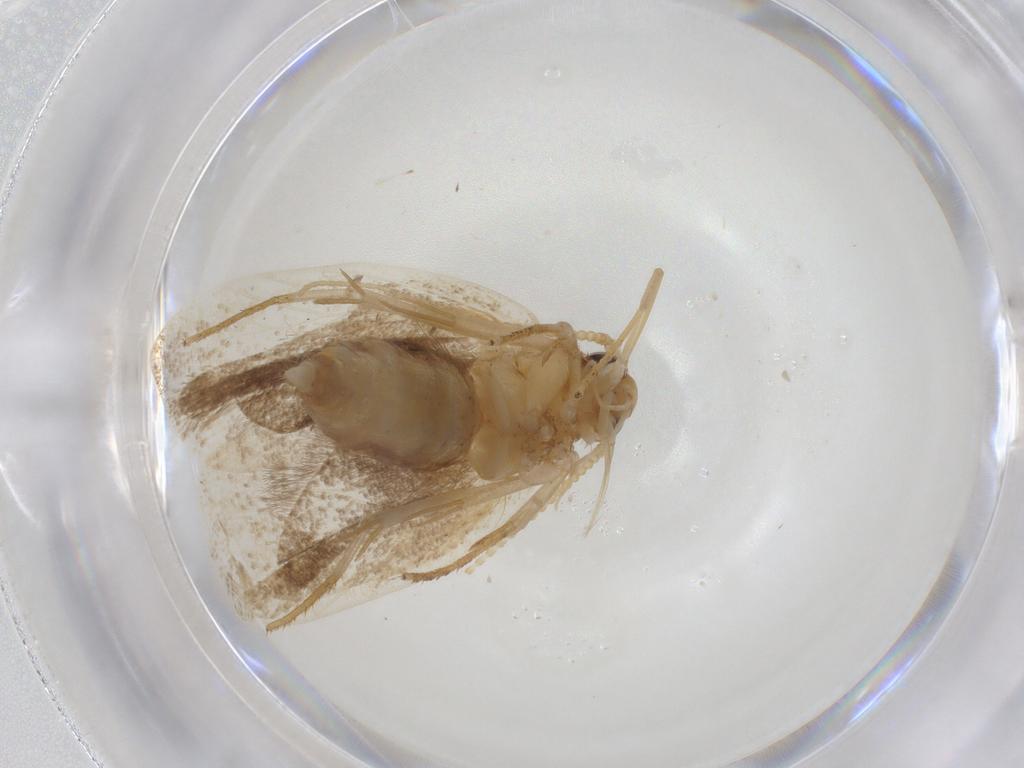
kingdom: Animalia
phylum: Arthropoda
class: Insecta
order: Lepidoptera
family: Lecithoceridae
